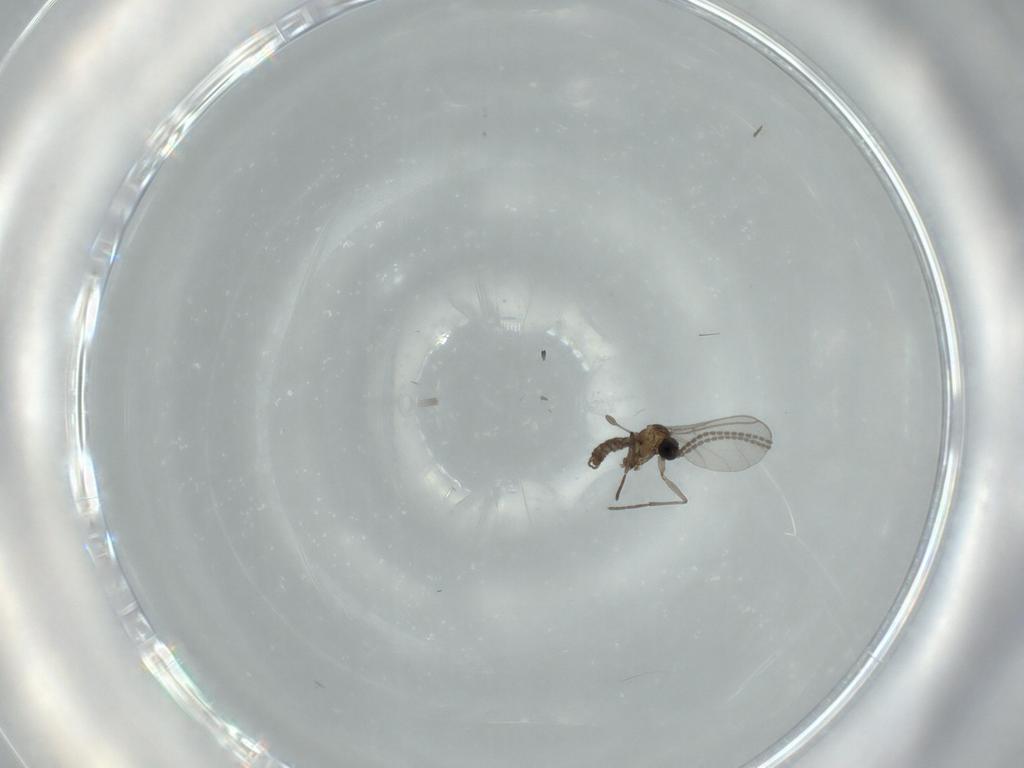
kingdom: Animalia
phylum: Arthropoda
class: Insecta
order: Diptera
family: Sciaridae
